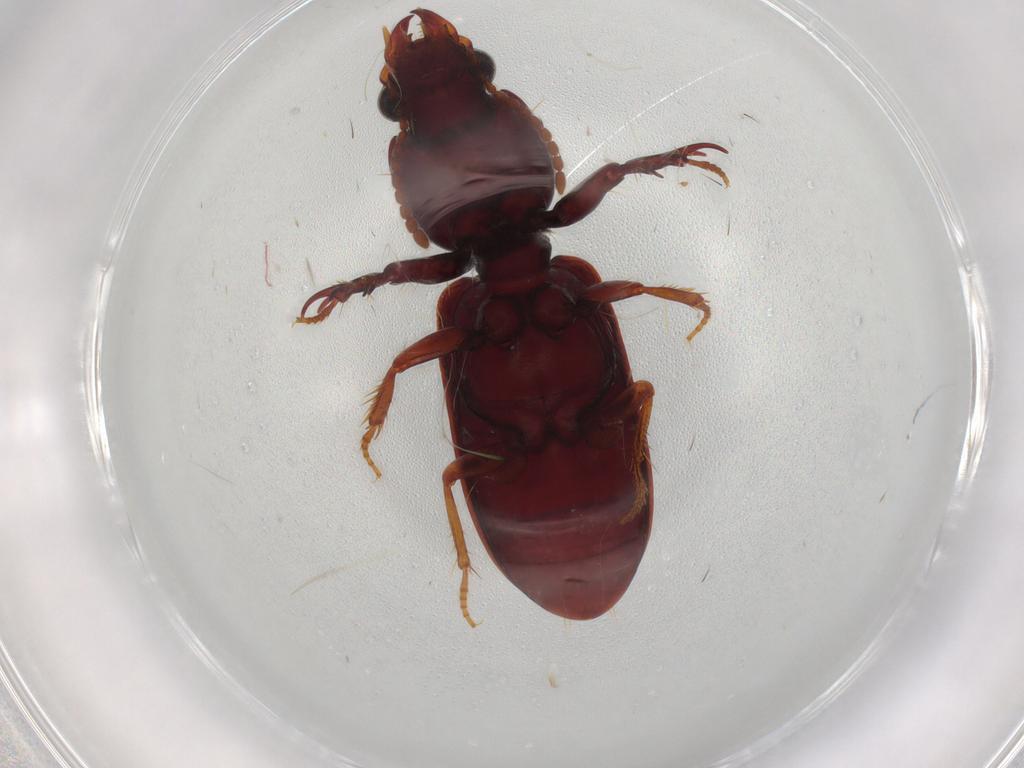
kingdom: Animalia
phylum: Arthropoda
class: Insecta
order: Coleoptera
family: Carabidae
